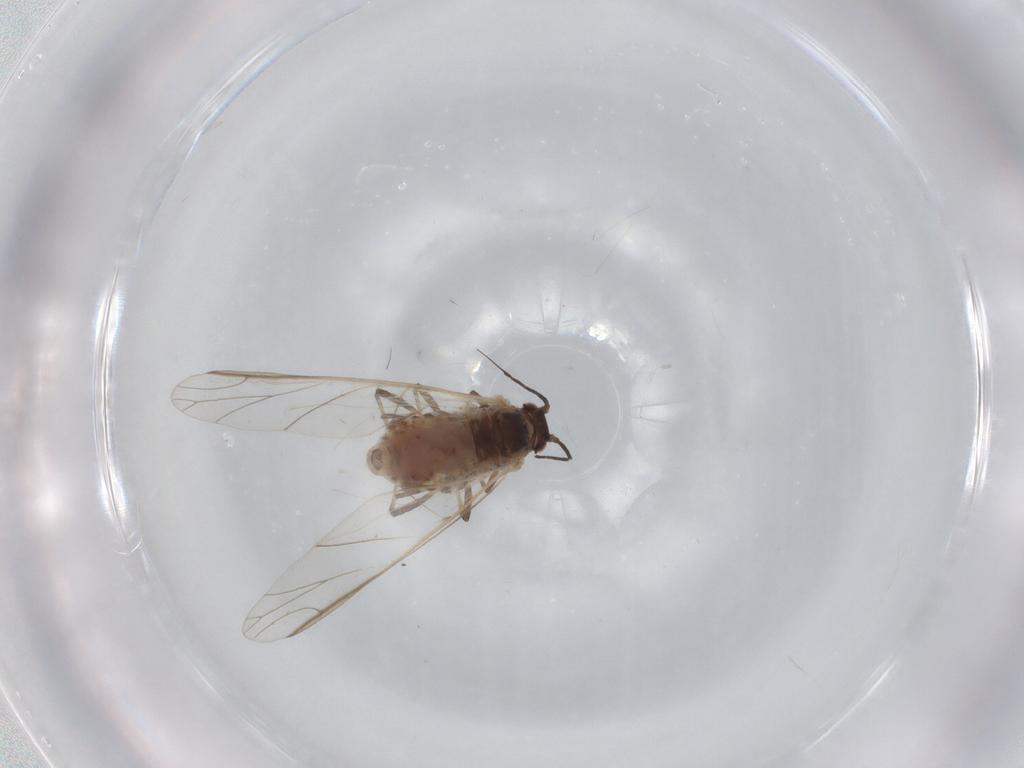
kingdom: Animalia
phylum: Arthropoda
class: Insecta
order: Hemiptera
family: Aphididae
